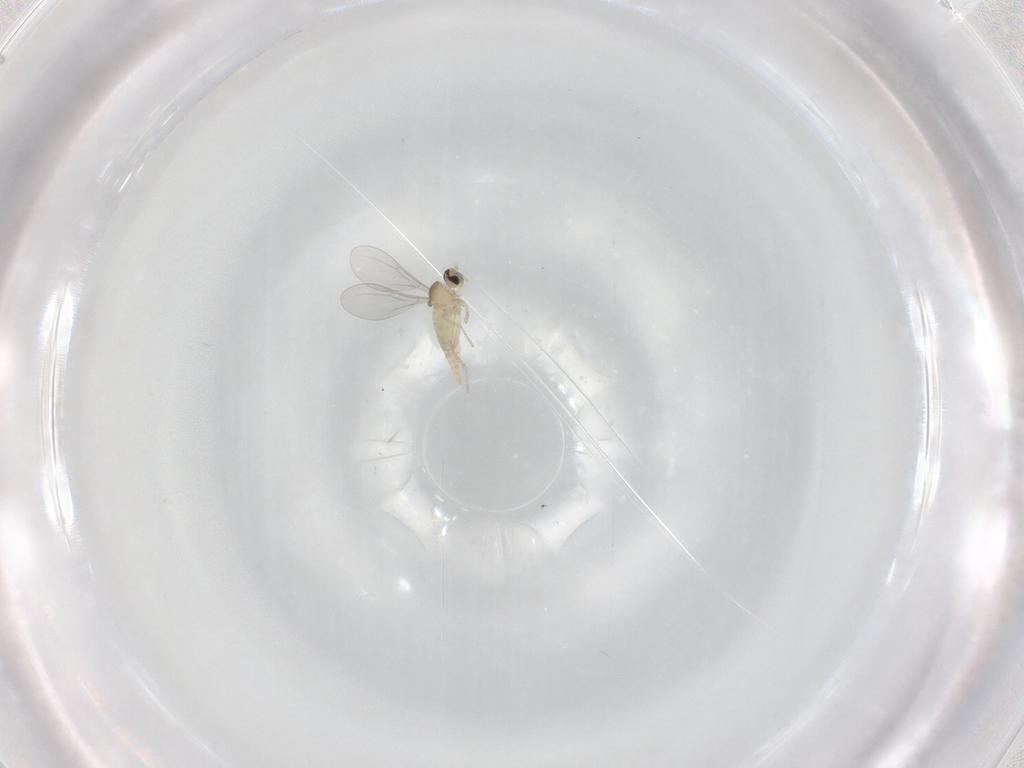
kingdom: Animalia
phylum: Arthropoda
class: Insecta
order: Diptera
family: Cecidomyiidae
